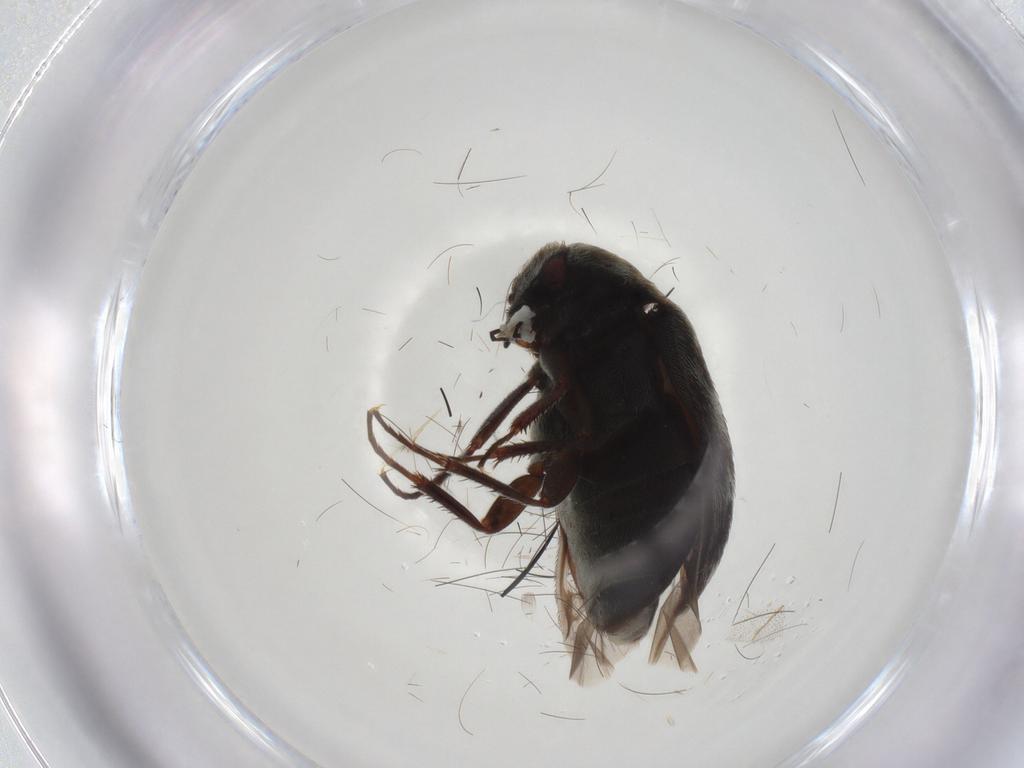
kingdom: Animalia
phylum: Arthropoda
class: Insecta
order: Coleoptera
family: Dermestidae
